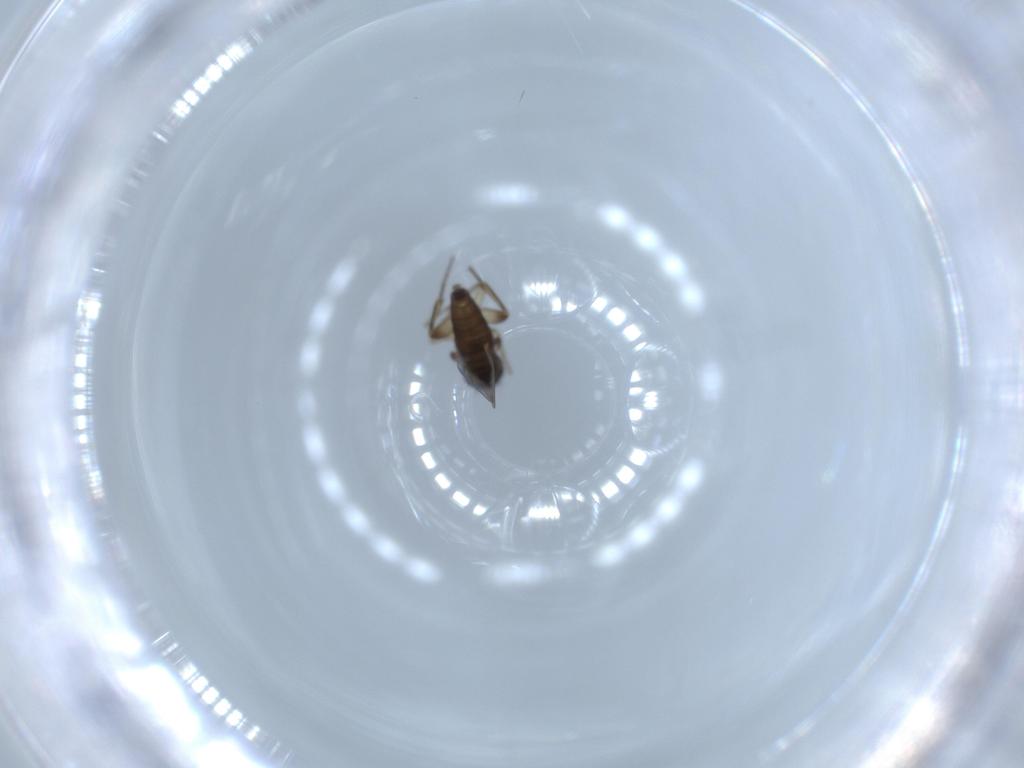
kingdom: Animalia
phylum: Arthropoda
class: Insecta
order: Diptera
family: Phoridae
